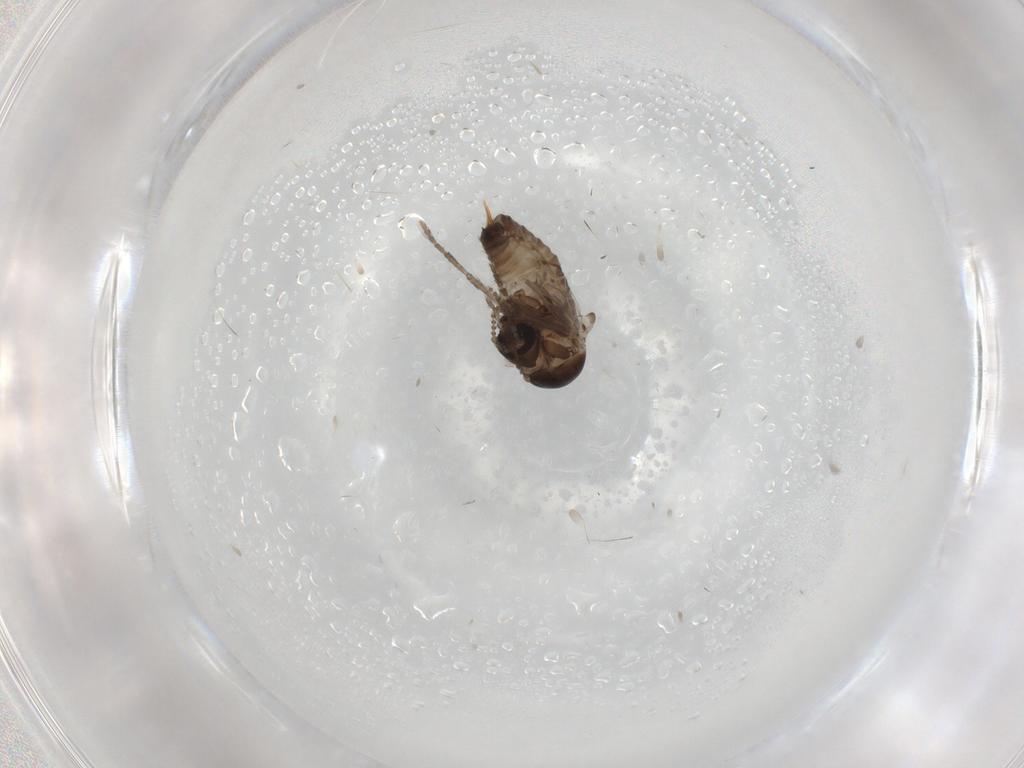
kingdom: Animalia
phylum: Arthropoda
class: Insecta
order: Diptera
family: Psychodidae
